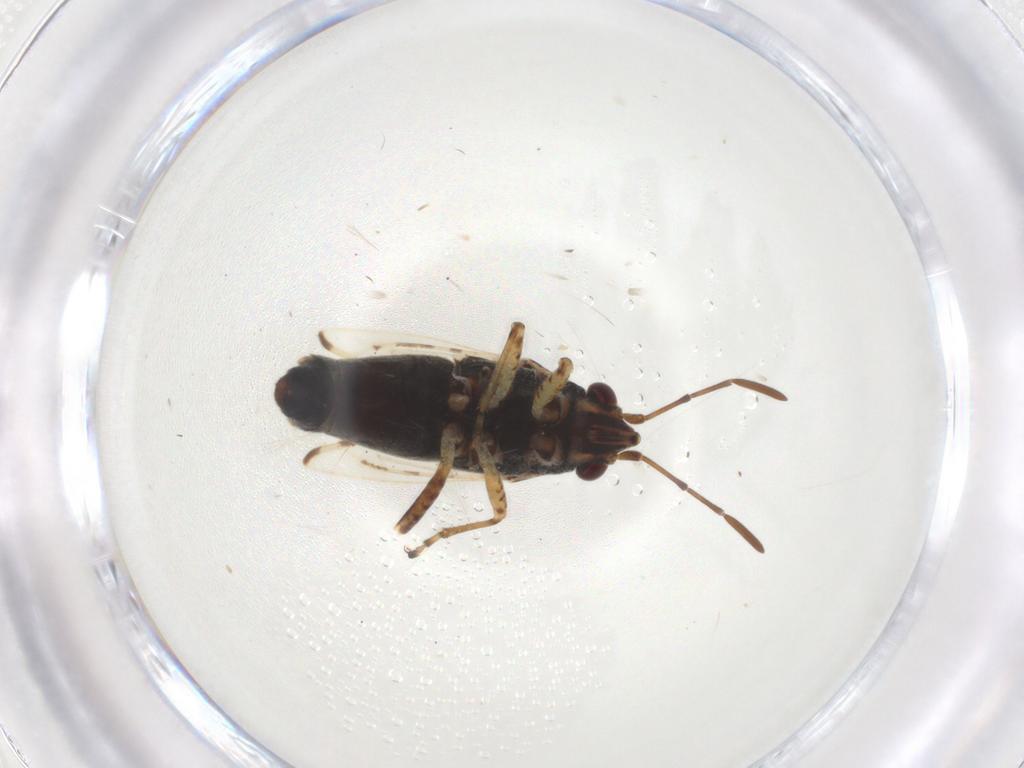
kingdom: Animalia
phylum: Arthropoda
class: Insecta
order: Hemiptera
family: Lygaeidae
